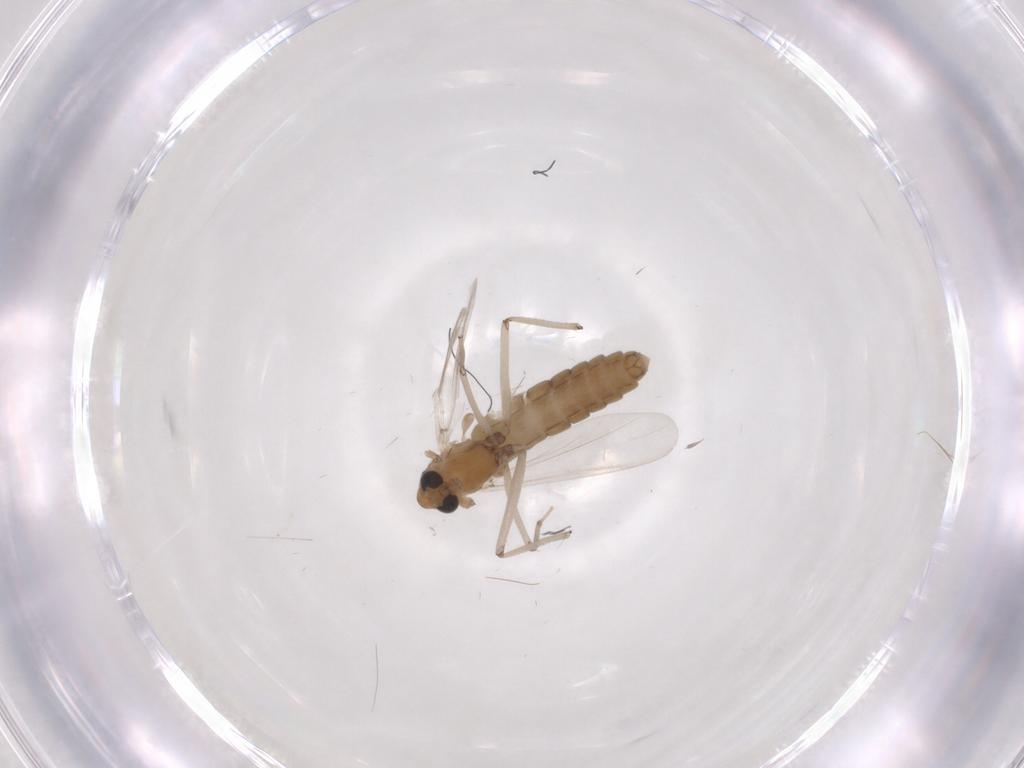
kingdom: Animalia
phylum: Arthropoda
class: Insecta
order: Diptera
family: Chironomidae
